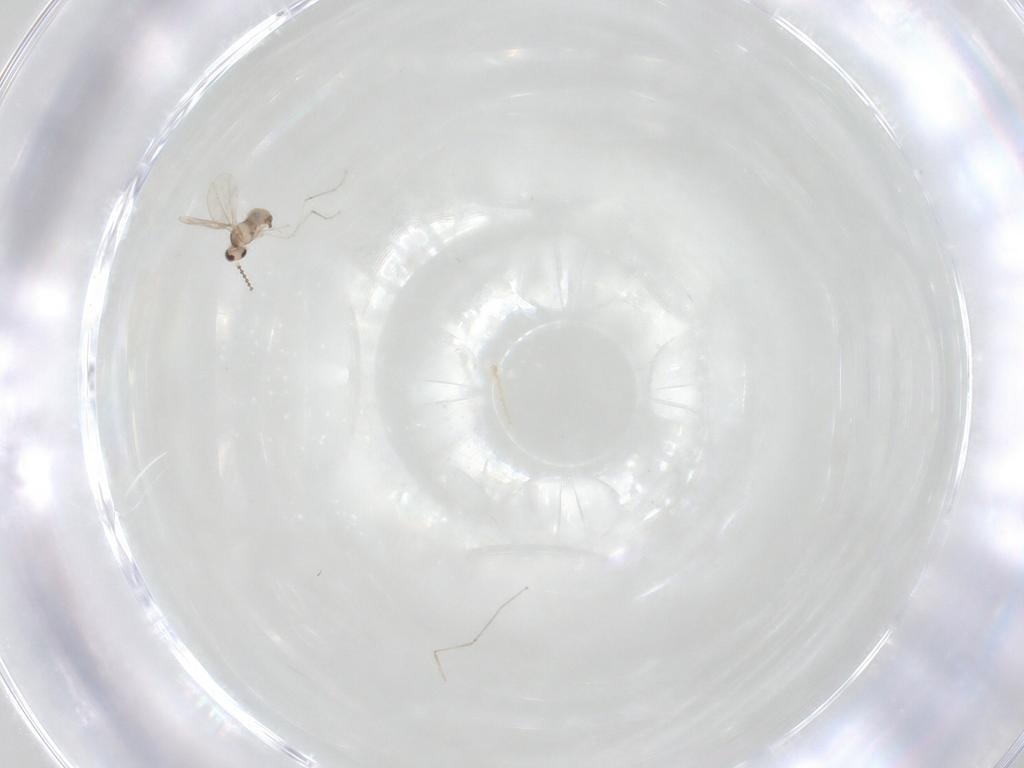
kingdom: Animalia
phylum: Arthropoda
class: Insecta
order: Diptera
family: Cecidomyiidae
